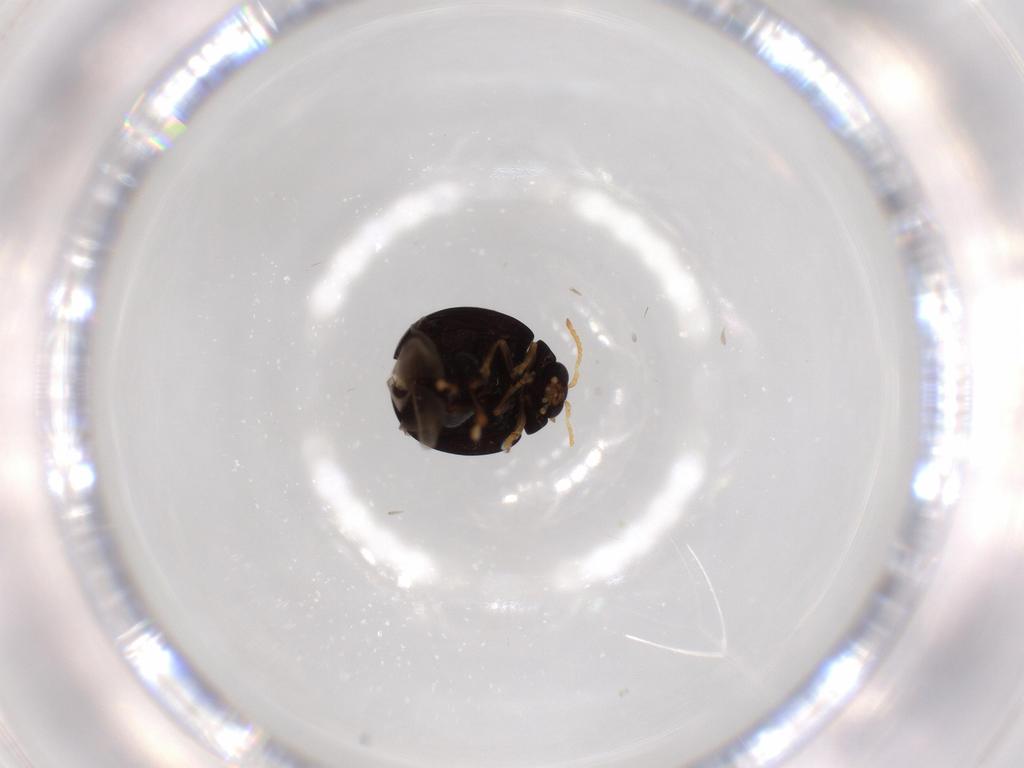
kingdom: Animalia
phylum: Arthropoda
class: Insecta
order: Coleoptera
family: Chrysomelidae
